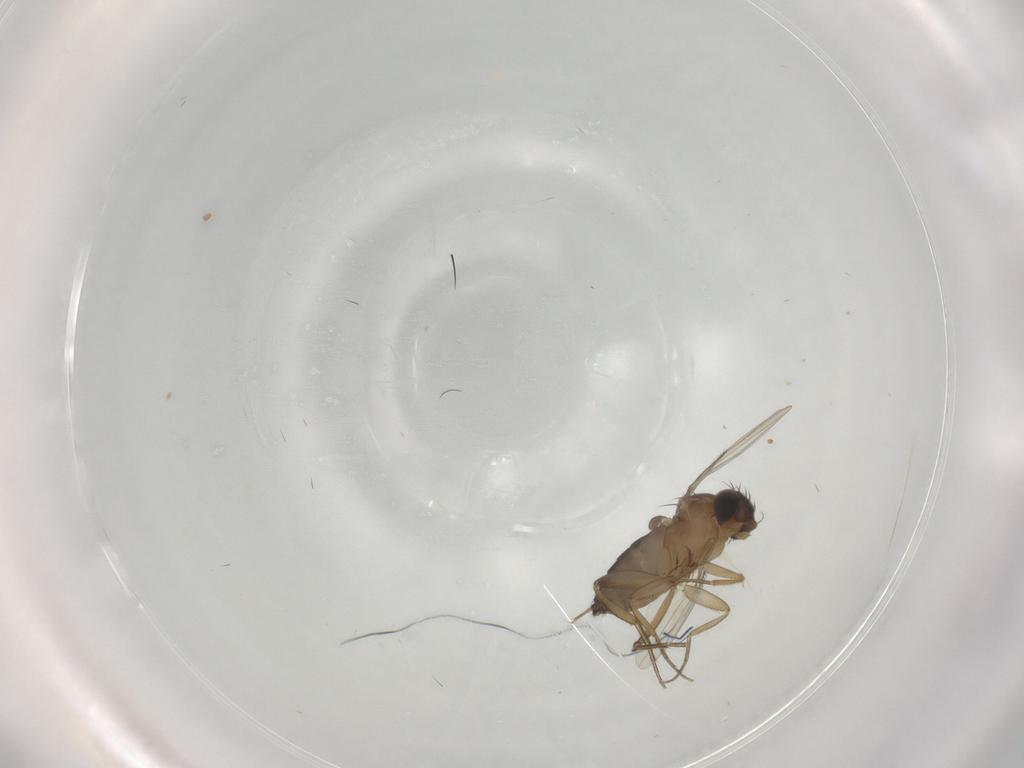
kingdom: Animalia
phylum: Arthropoda
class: Insecta
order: Diptera
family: Phoridae
